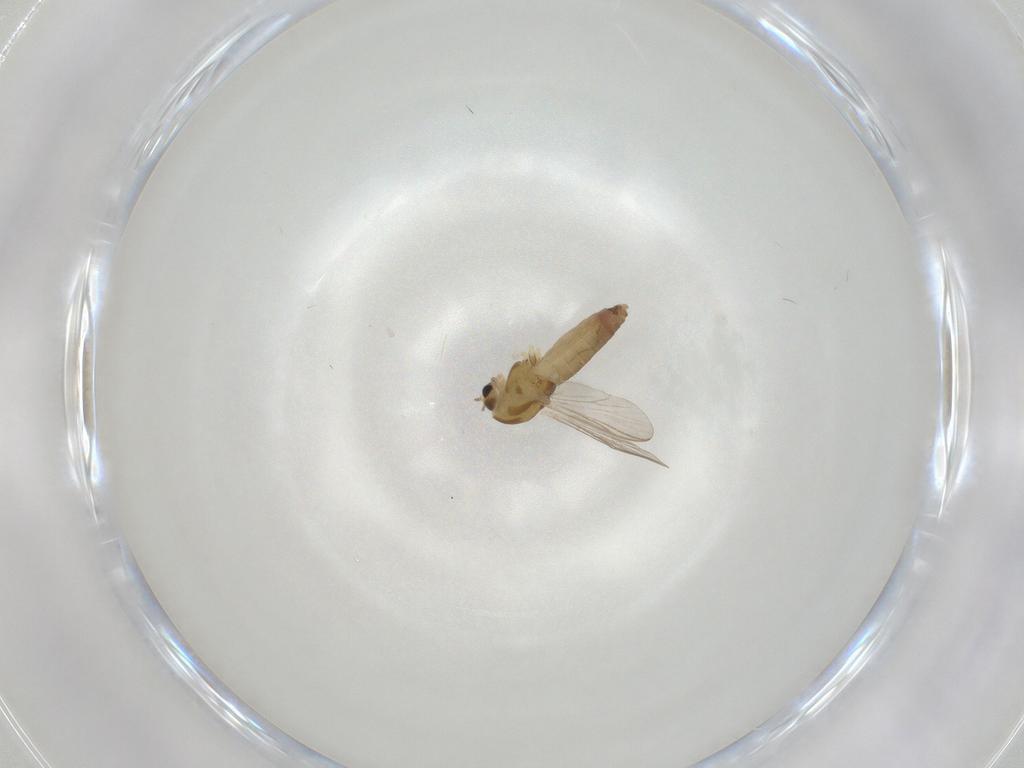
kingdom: Animalia
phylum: Arthropoda
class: Insecta
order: Diptera
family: Chironomidae
